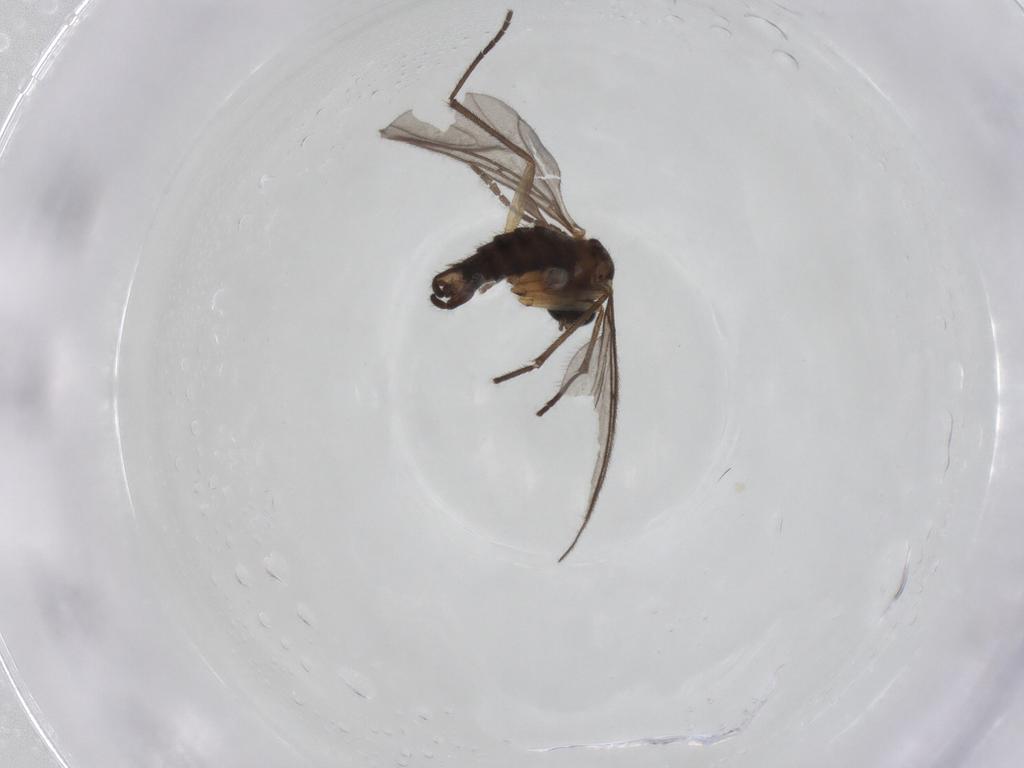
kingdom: Animalia
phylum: Arthropoda
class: Insecta
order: Diptera
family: Sciaridae
